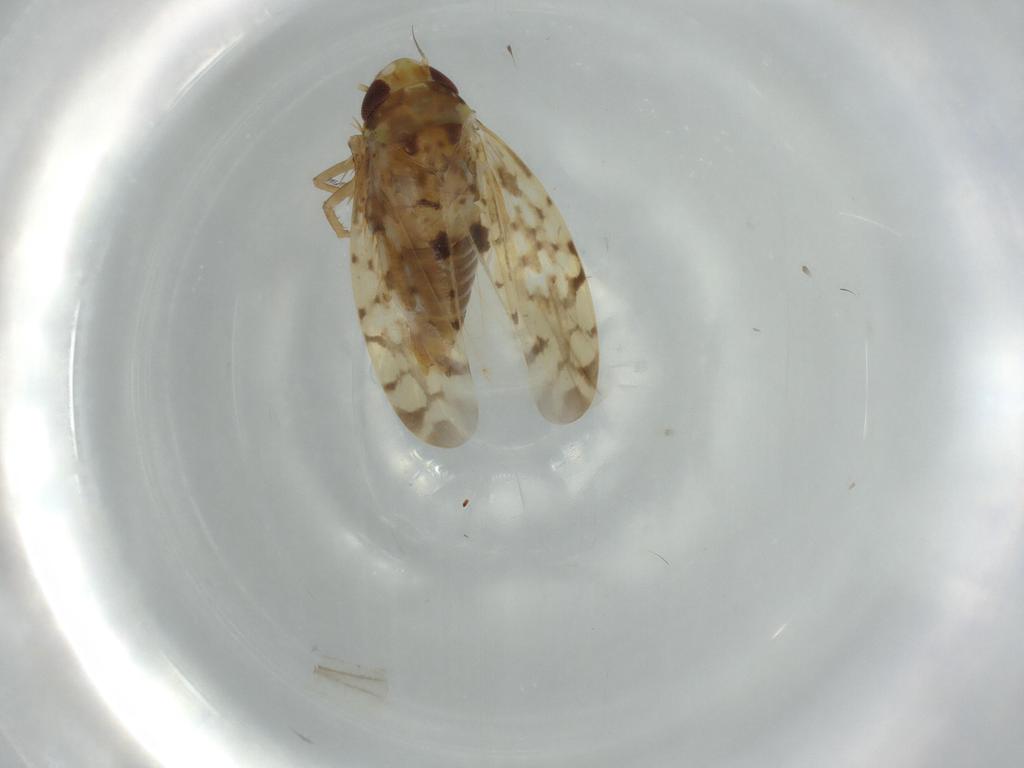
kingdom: Animalia
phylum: Arthropoda
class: Insecta
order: Hemiptera
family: Cicadellidae
